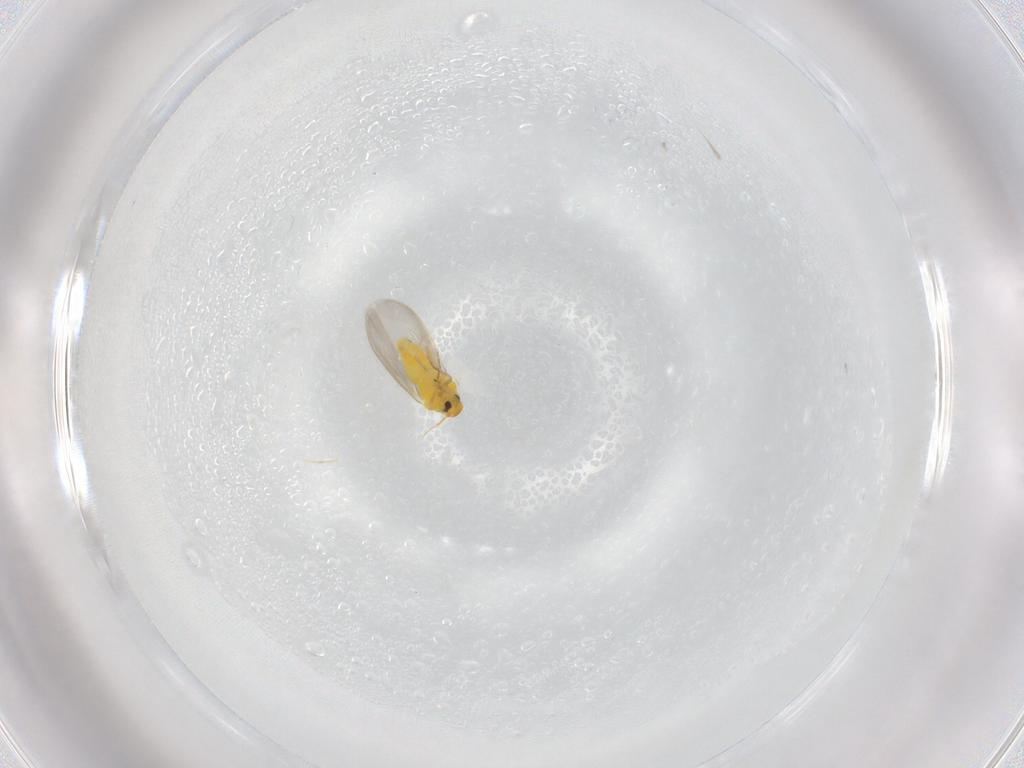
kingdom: Animalia
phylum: Arthropoda
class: Insecta
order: Hemiptera
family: Aleyrodidae
